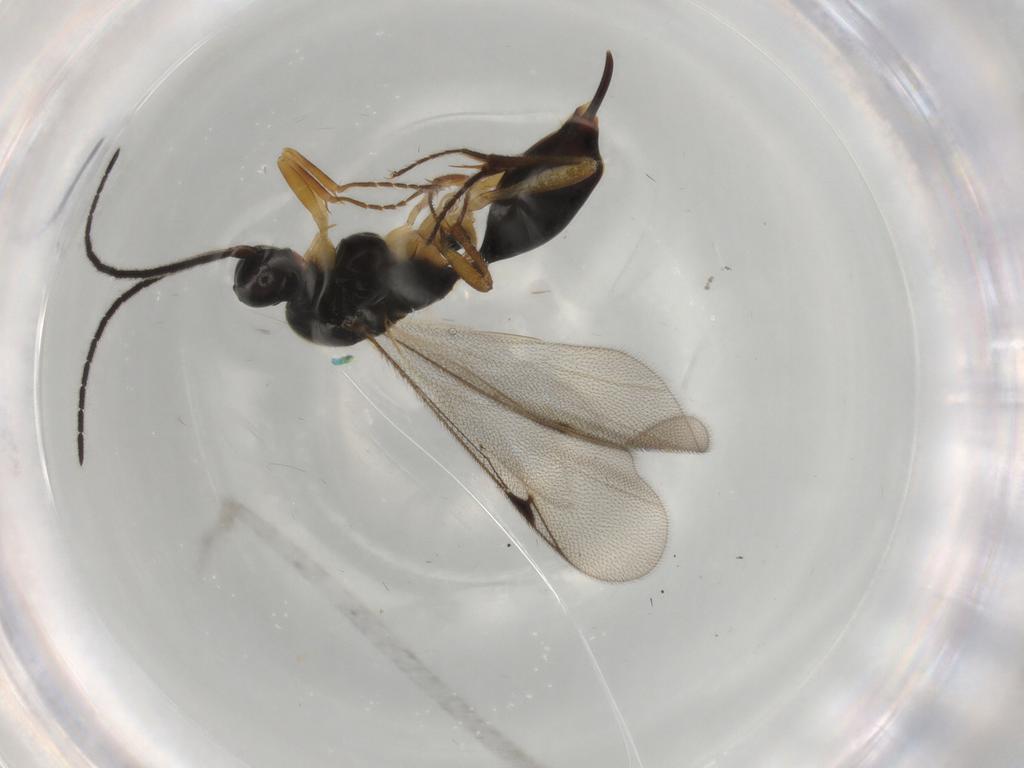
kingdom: Animalia
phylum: Arthropoda
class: Insecta
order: Hymenoptera
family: Proctotrupidae
